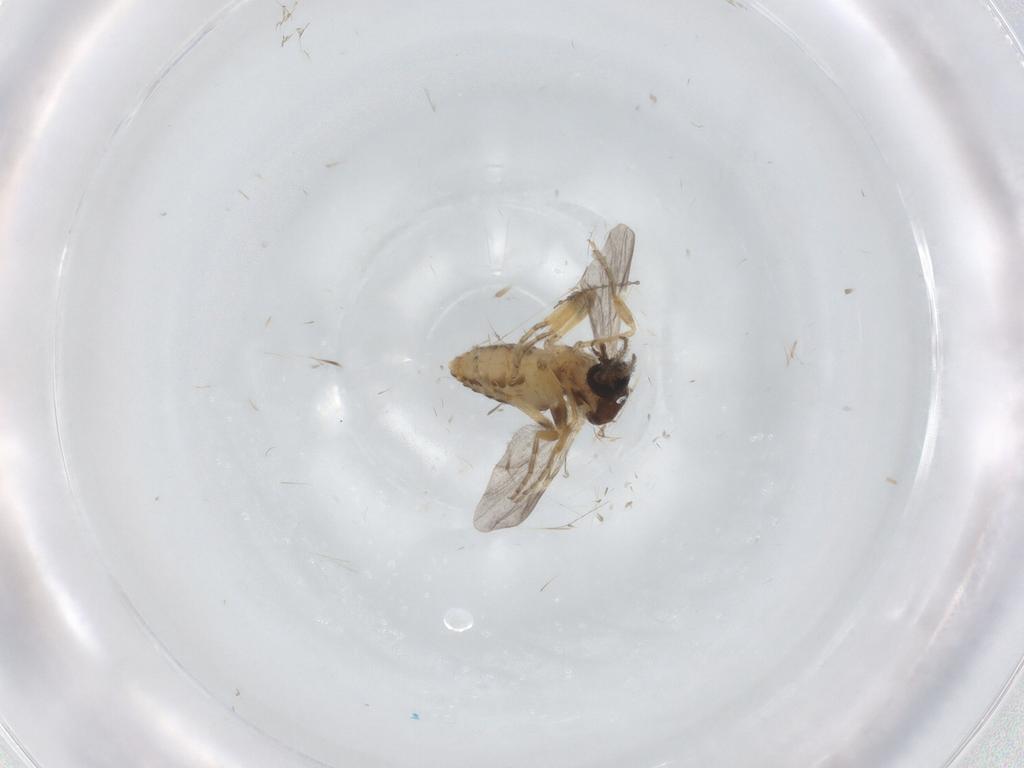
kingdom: Animalia
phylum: Arthropoda
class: Insecta
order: Diptera
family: Ceratopogonidae
